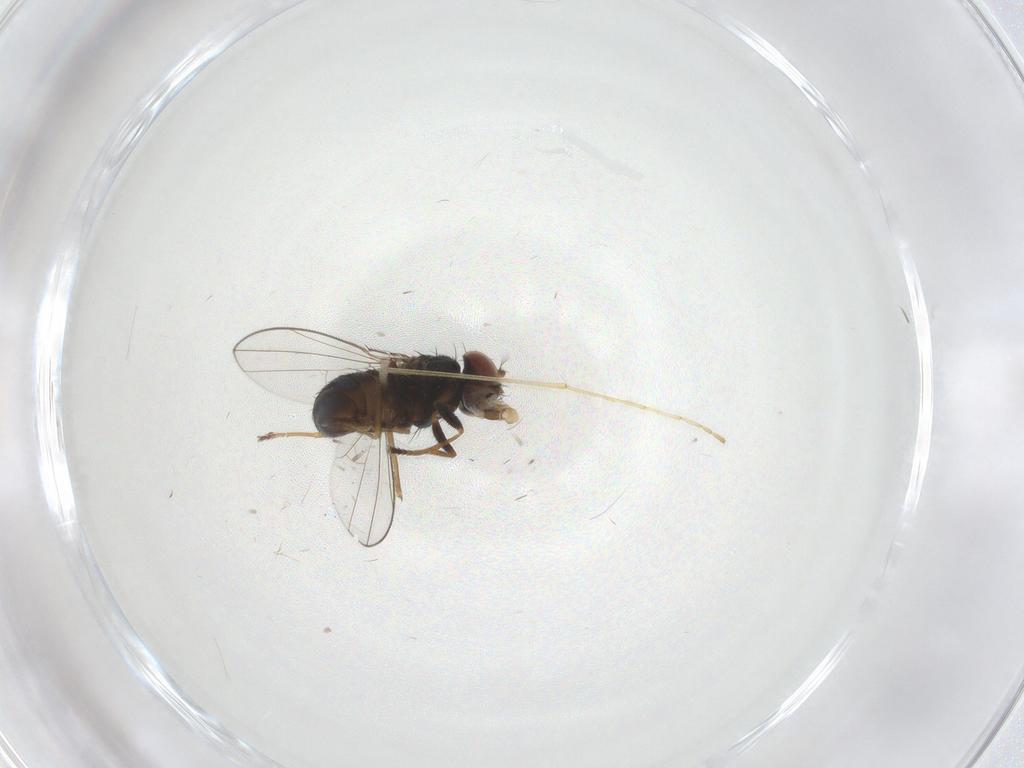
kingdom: Animalia
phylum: Arthropoda
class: Insecta
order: Diptera
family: Ephydridae
